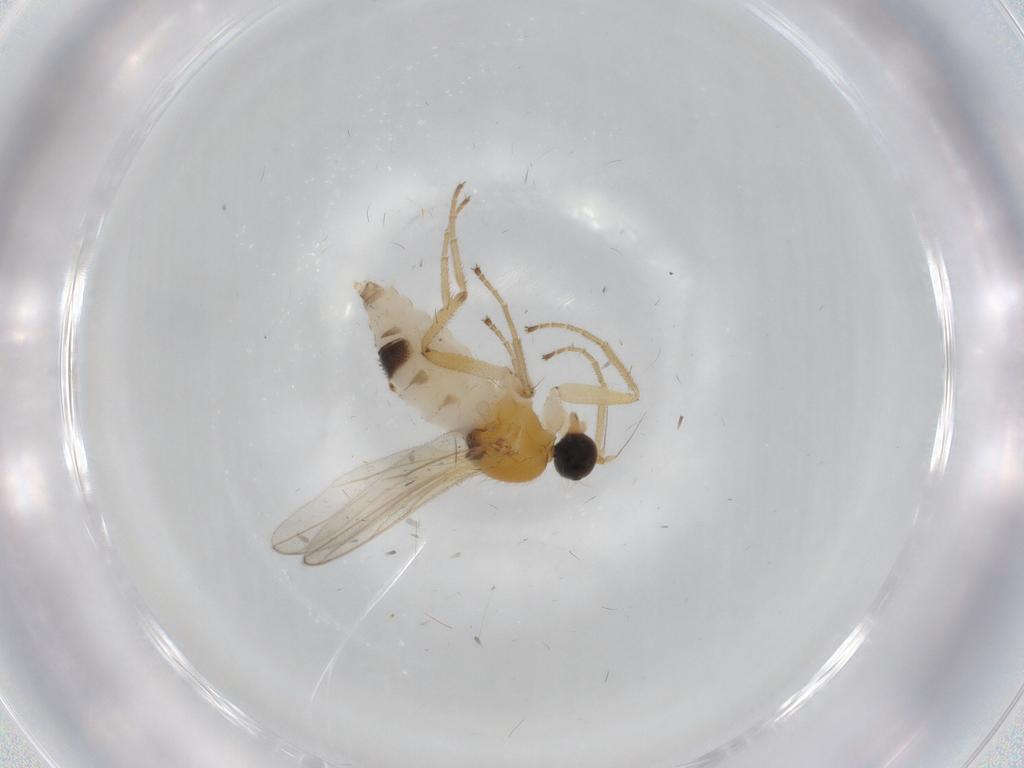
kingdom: Animalia
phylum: Arthropoda
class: Insecta
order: Diptera
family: Hybotidae
